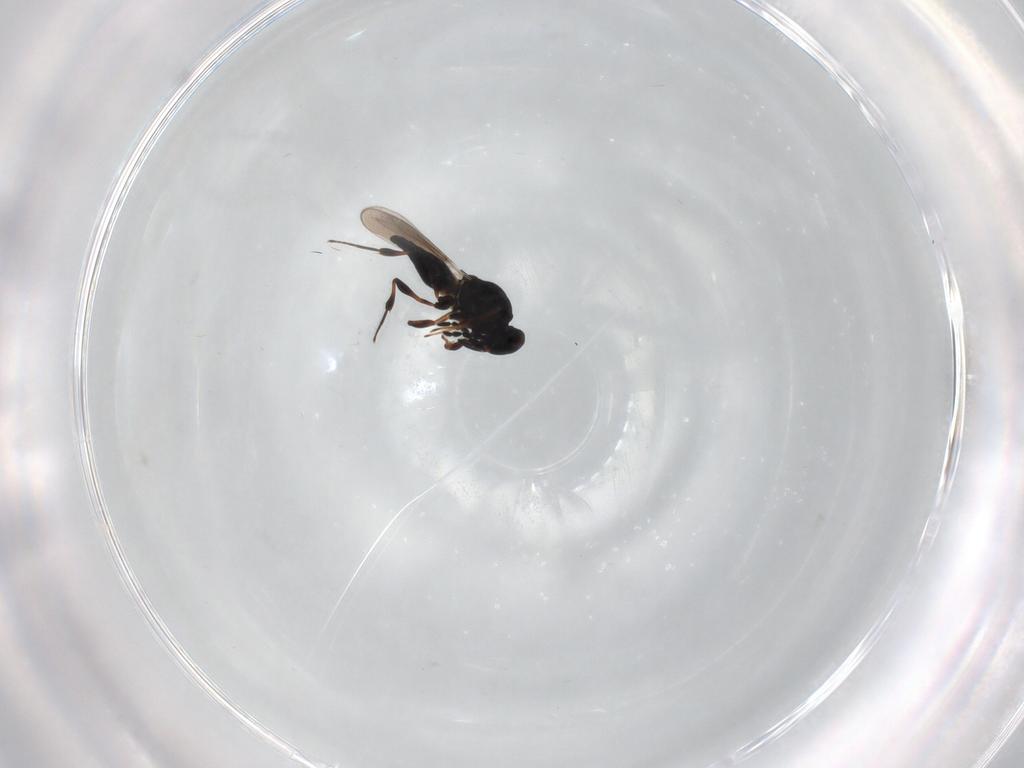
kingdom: Animalia
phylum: Arthropoda
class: Insecta
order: Hymenoptera
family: Platygastridae
